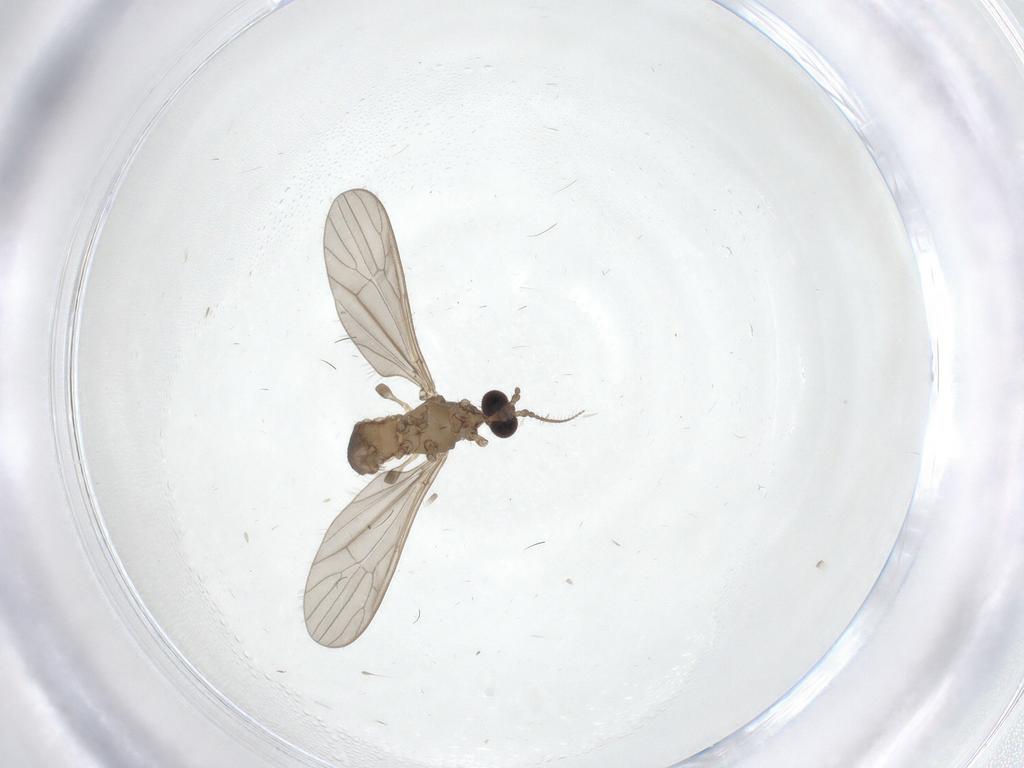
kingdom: Animalia
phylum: Arthropoda
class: Insecta
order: Diptera
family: Limoniidae
